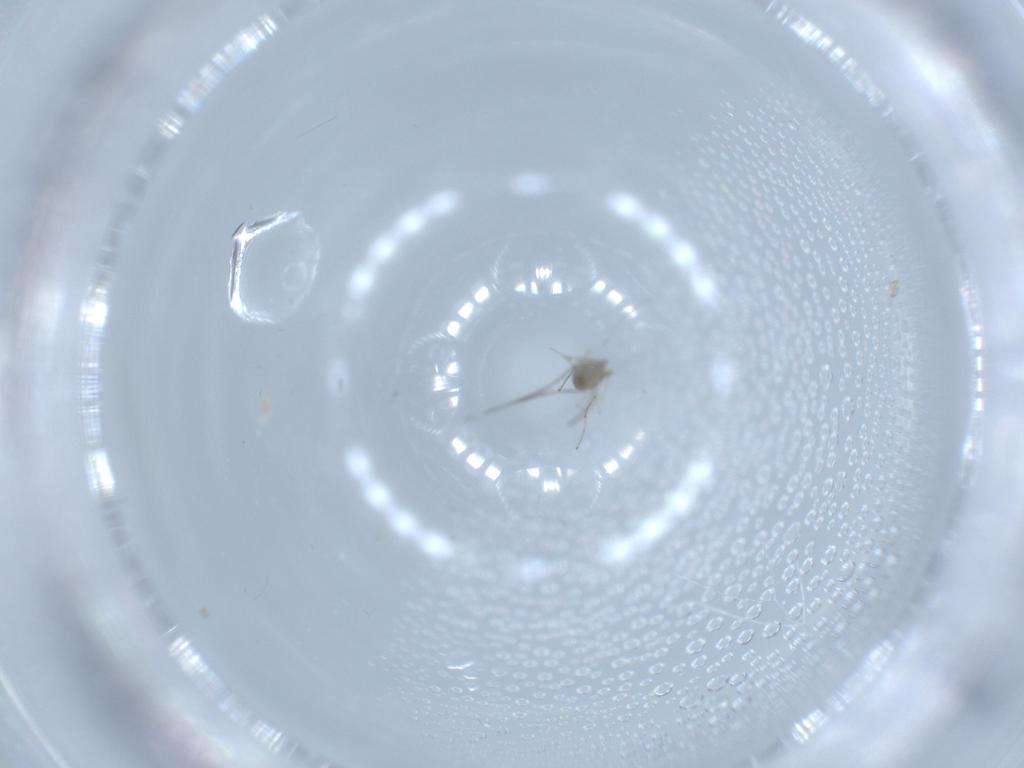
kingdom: Animalia
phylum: Arthropoda
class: Insecta
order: Diptera
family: Cecidomyiidae
